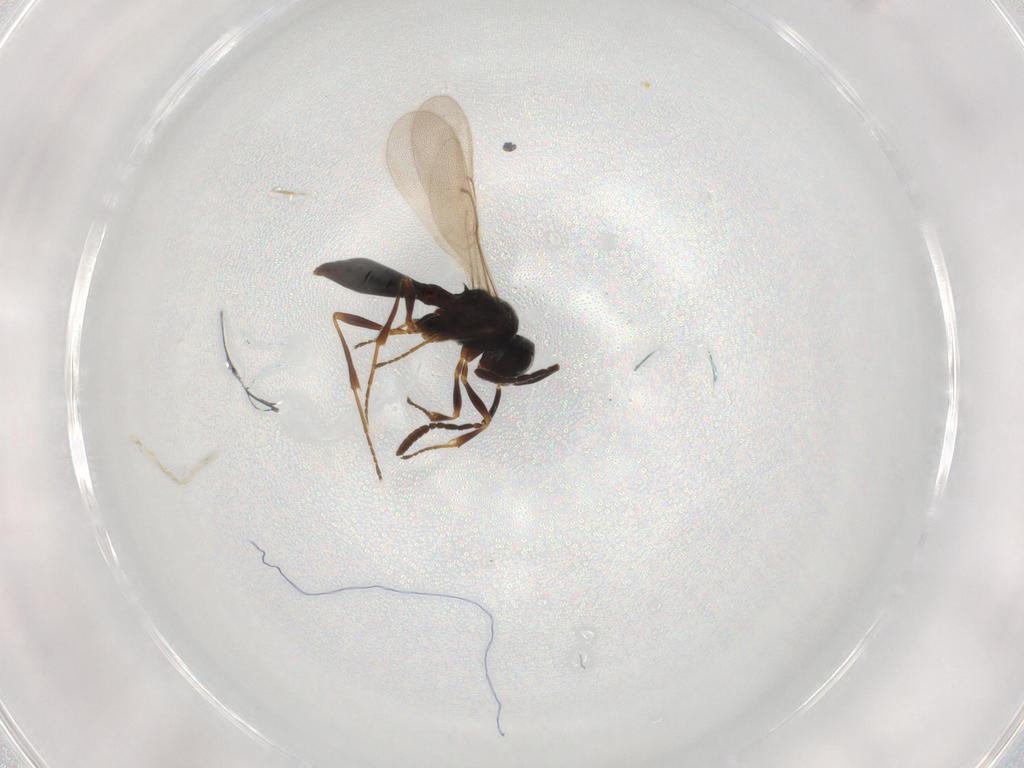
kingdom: Animalia
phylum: Arthropoda
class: Insecta
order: Hymenoptera
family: Scelionidae
